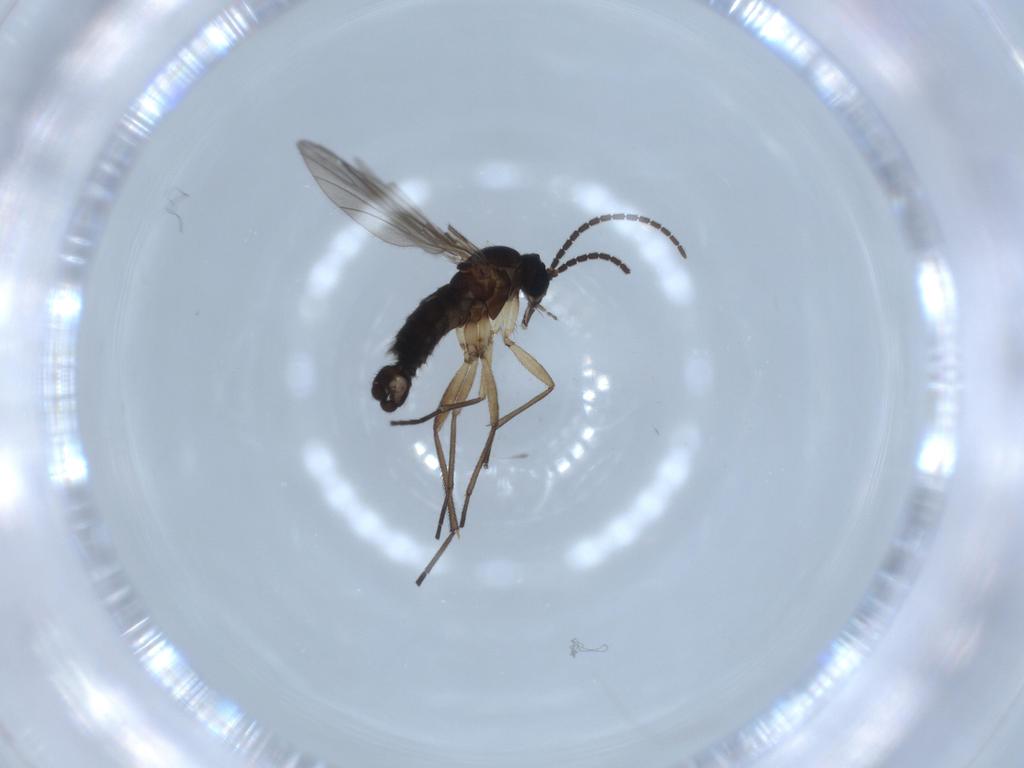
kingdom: Animalia
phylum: Arthropoda
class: Insecta
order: Diptera
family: Sciaridae
